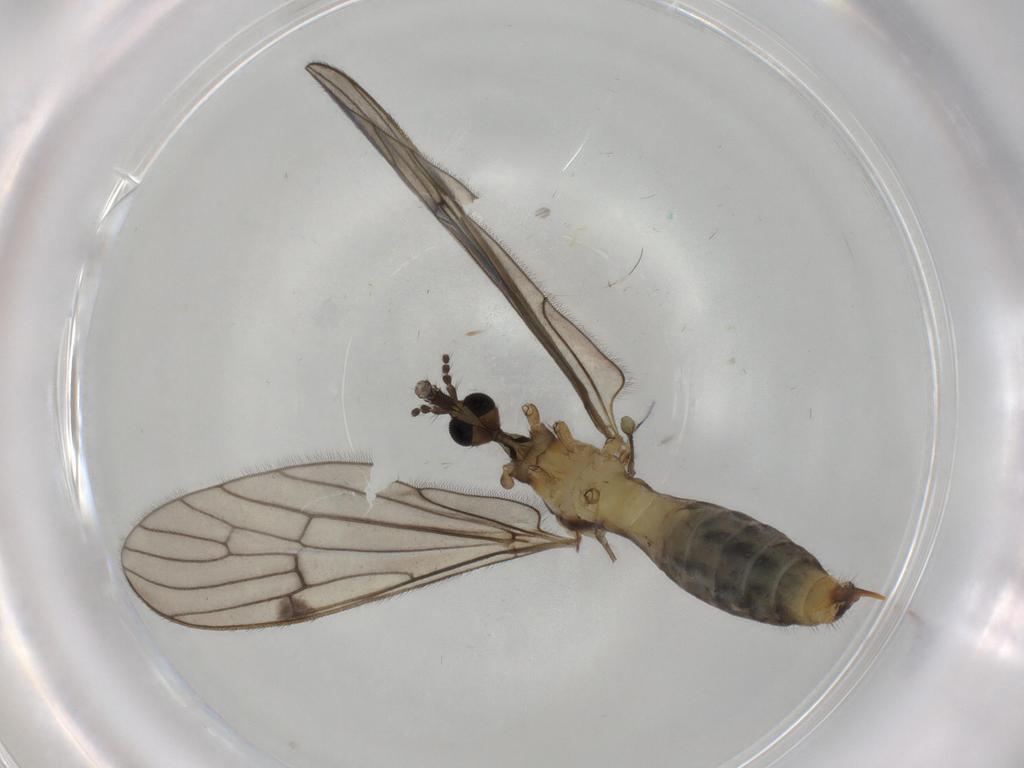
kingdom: Animalia
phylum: Arthropoda
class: Insecta
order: Diptera
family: Limoniidae
